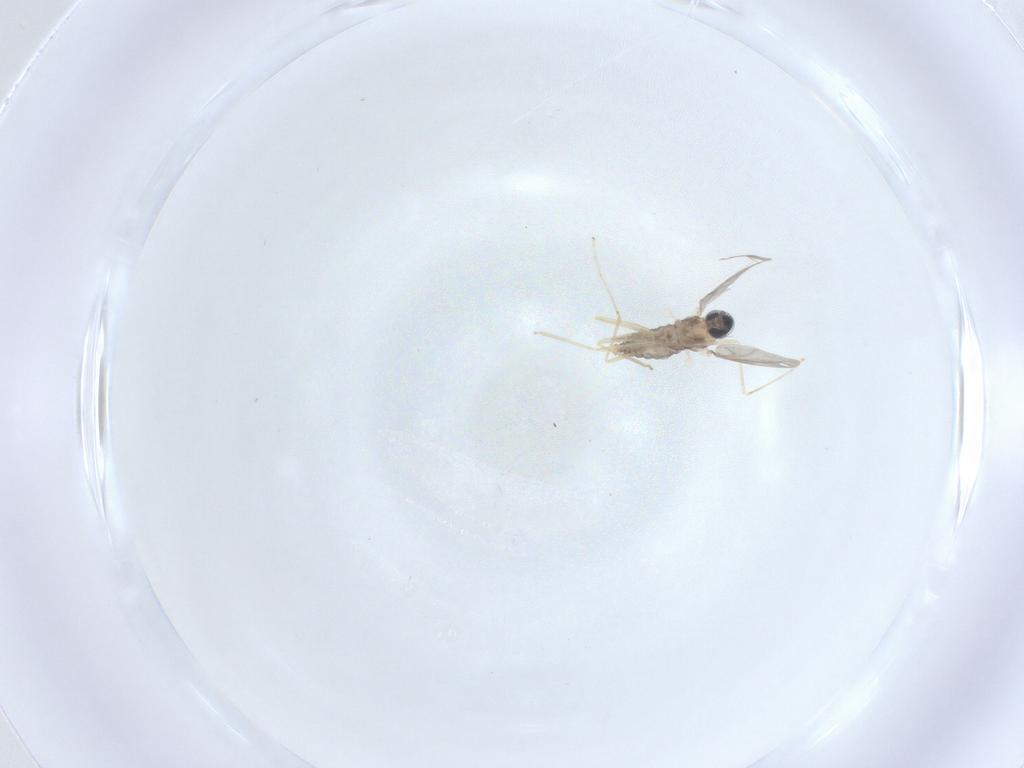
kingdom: Animalia
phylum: Arthropoda
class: Insecta
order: Diptera
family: Cecidomyiidae
